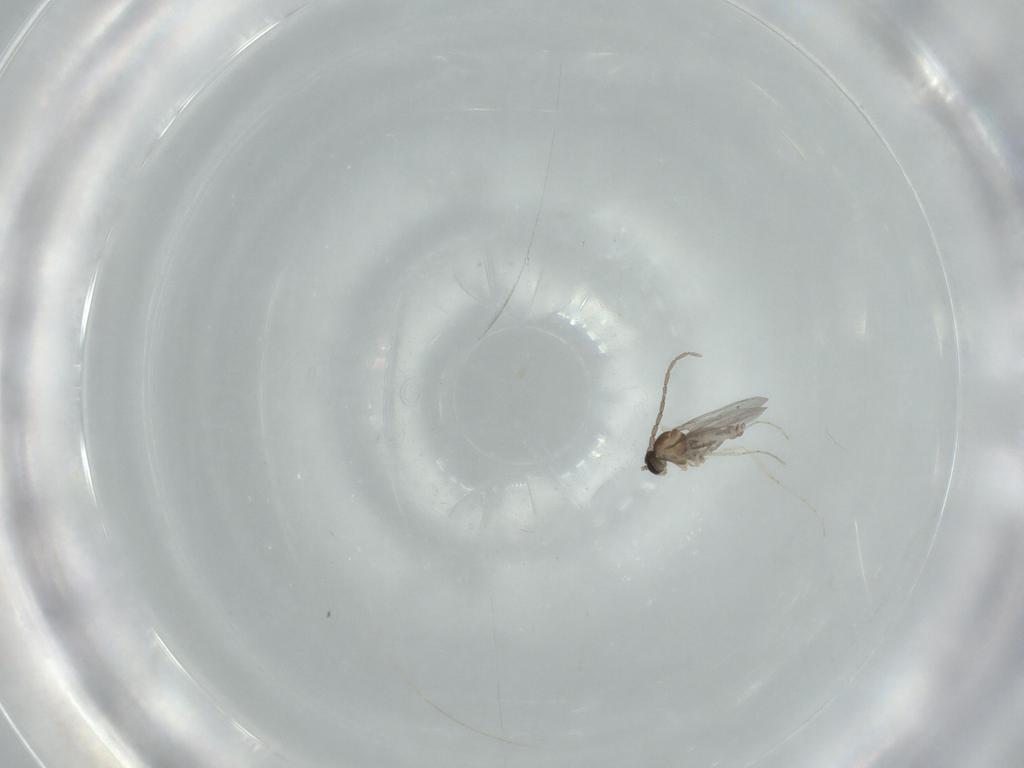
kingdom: Animalia
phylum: Arthropoda
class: Insecta
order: Diptera
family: Cecidomyiidae
